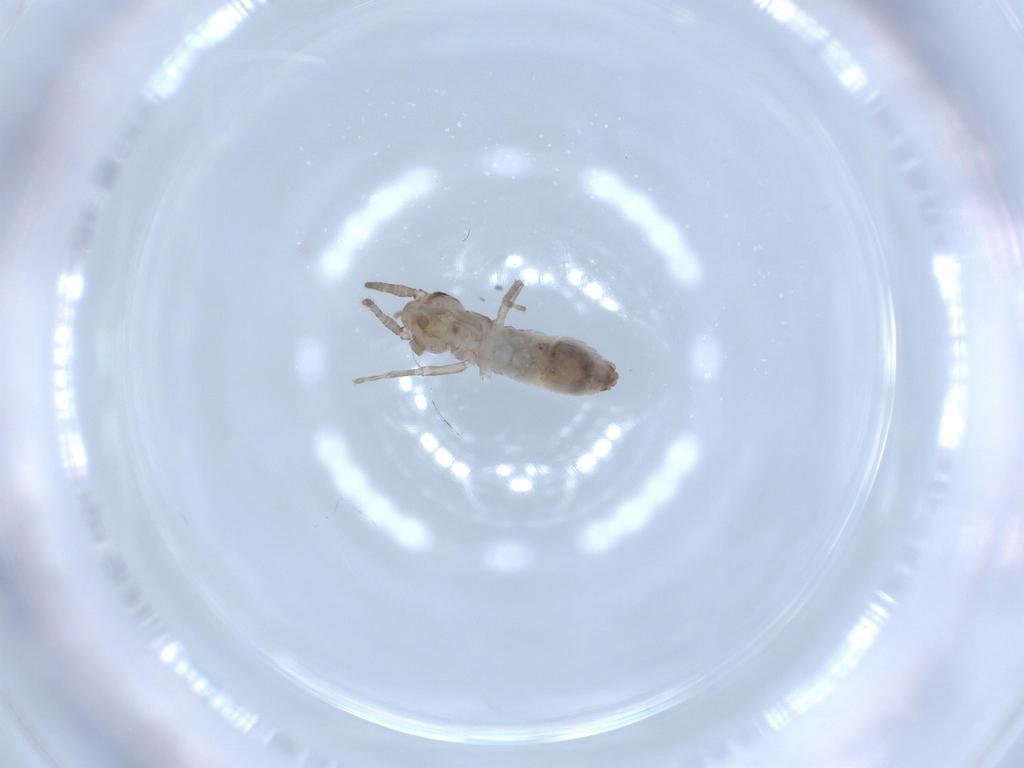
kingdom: Animalia
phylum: Arthropoda
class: Insecta
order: Orthoptera
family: Gryllidae
